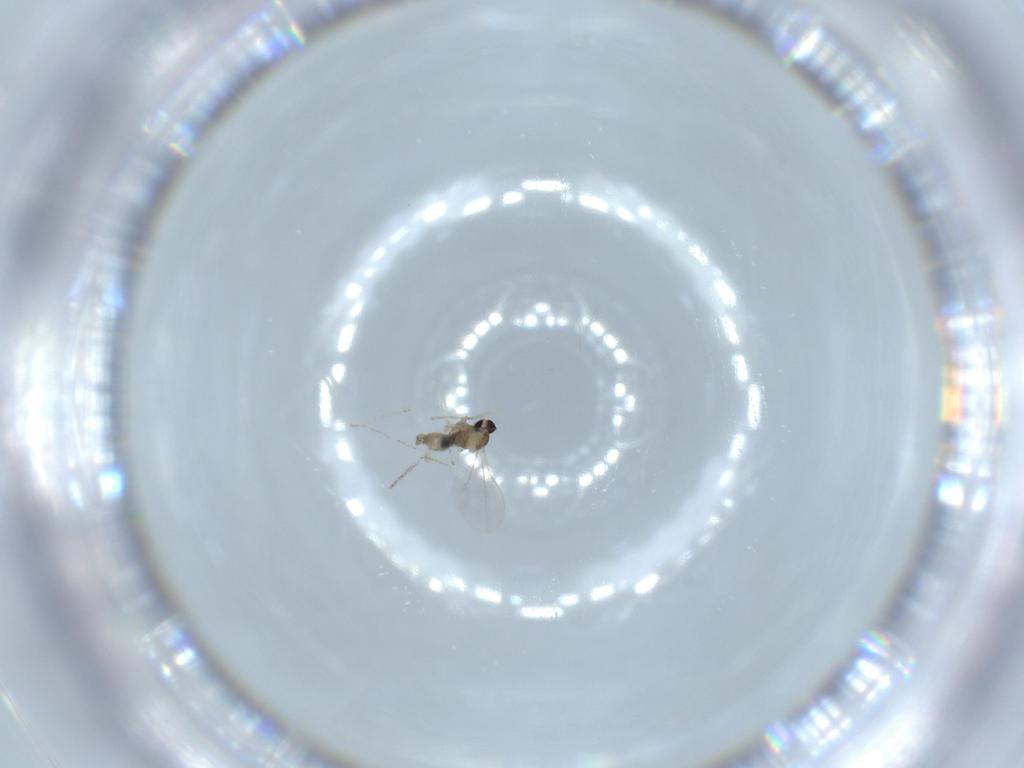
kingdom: Animalia
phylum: Arthropoda
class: Insecta
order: Diptera
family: Cecidomyiidae
